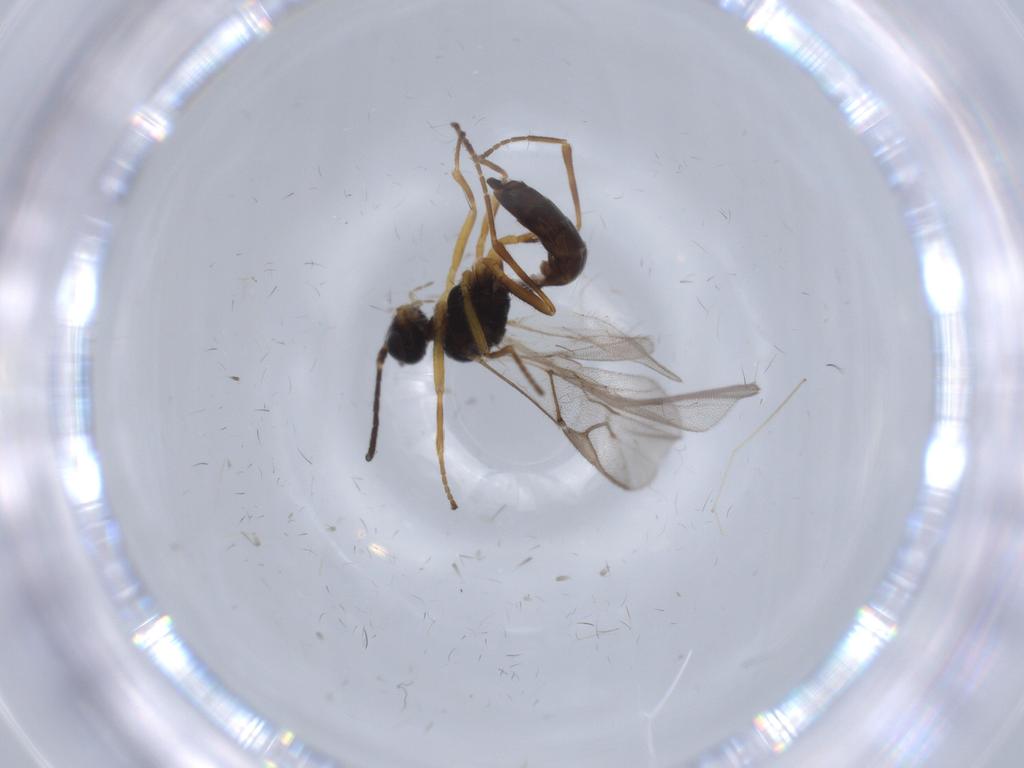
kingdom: Animalia
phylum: Arthropoda
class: Insecta
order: Hymenoptera
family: Braconidae
